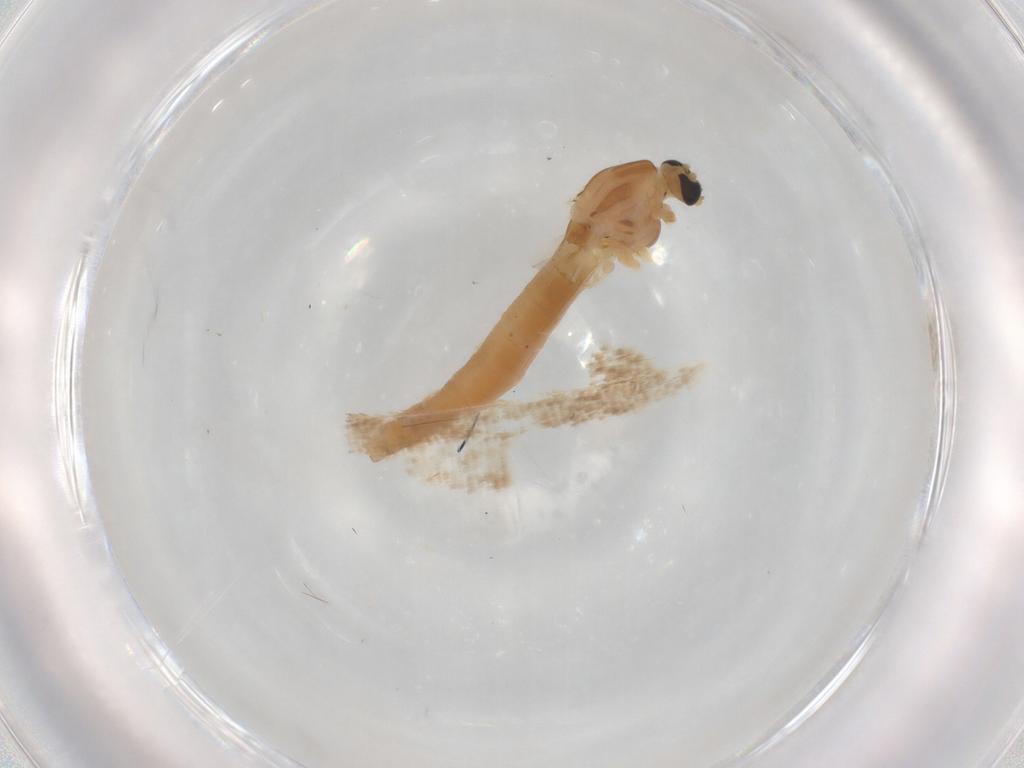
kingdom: Animalia
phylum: Arthropoda
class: Insecta
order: Diptera
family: Chironomidae
